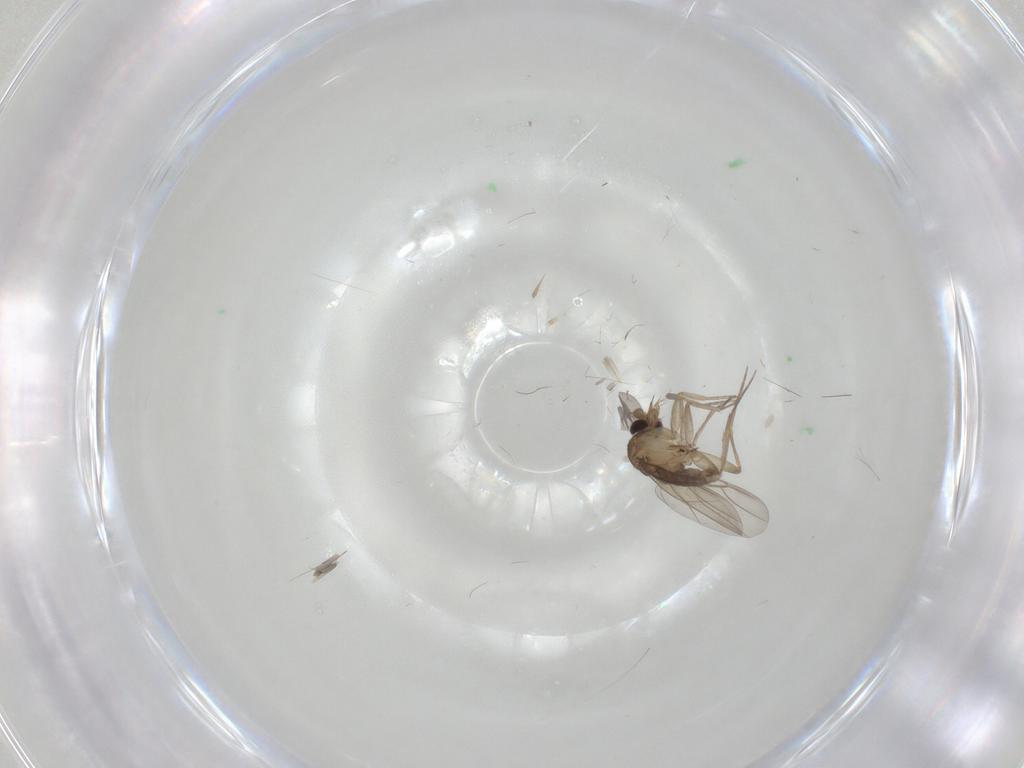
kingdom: Animalia
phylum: Arthropoda
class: Insecta
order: Diptera
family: Phoridae
